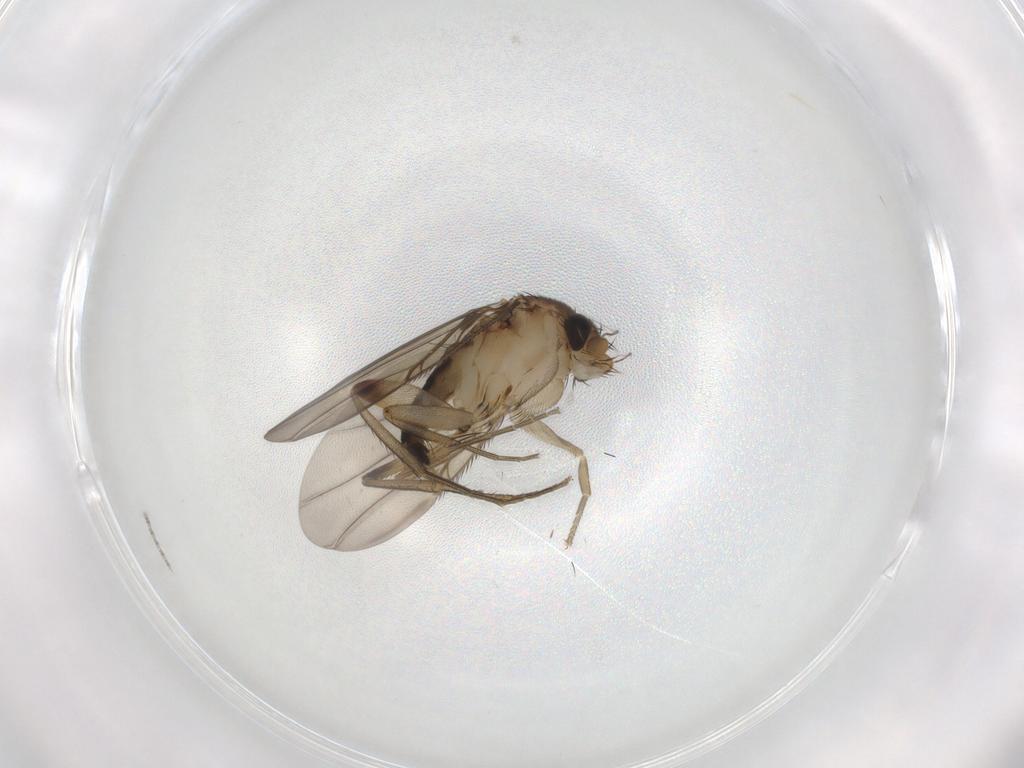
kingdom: Animalia
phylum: Arthropoda
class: Insecta
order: Diptera
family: Phoridae
